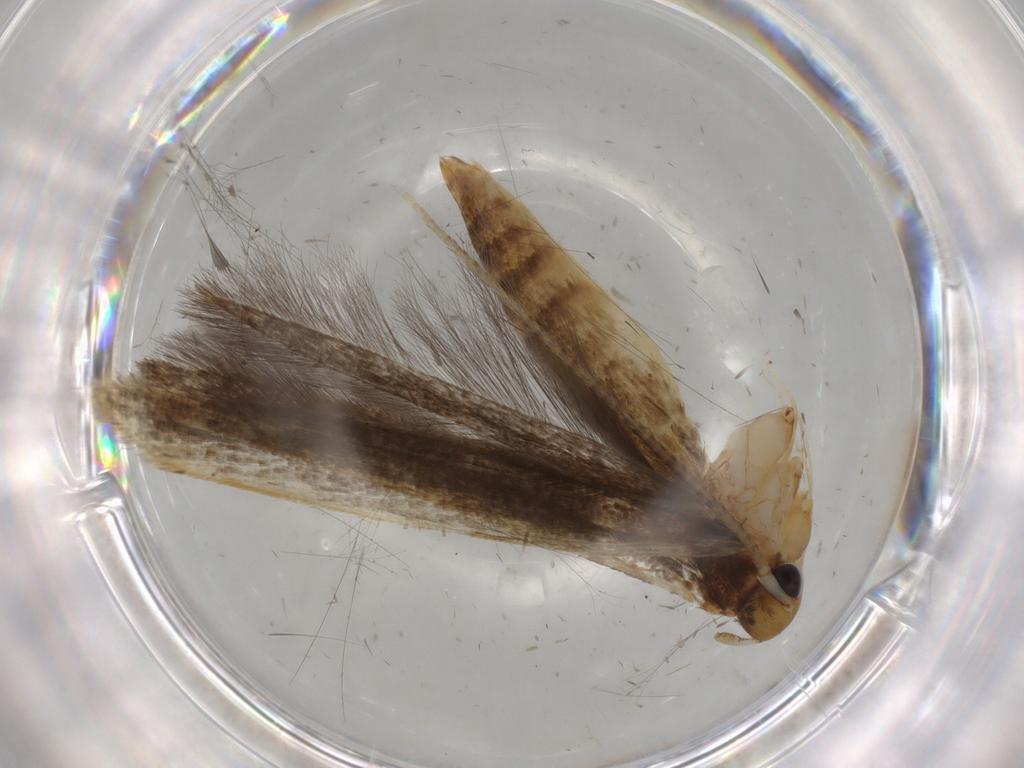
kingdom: Animalia
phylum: Arthropoda
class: Insecta
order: Lepidoptera
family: Pterolonchidae
